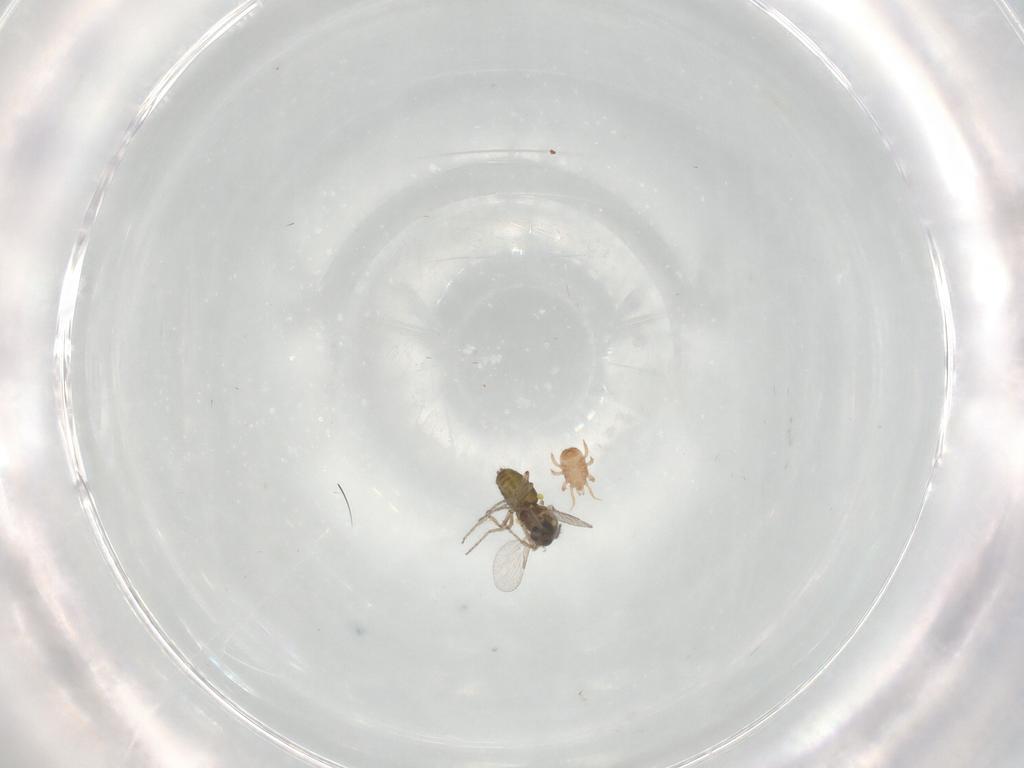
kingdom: Animalia
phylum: Arthropoda
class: Insecta
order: Diptera
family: Ceratopogonidae
